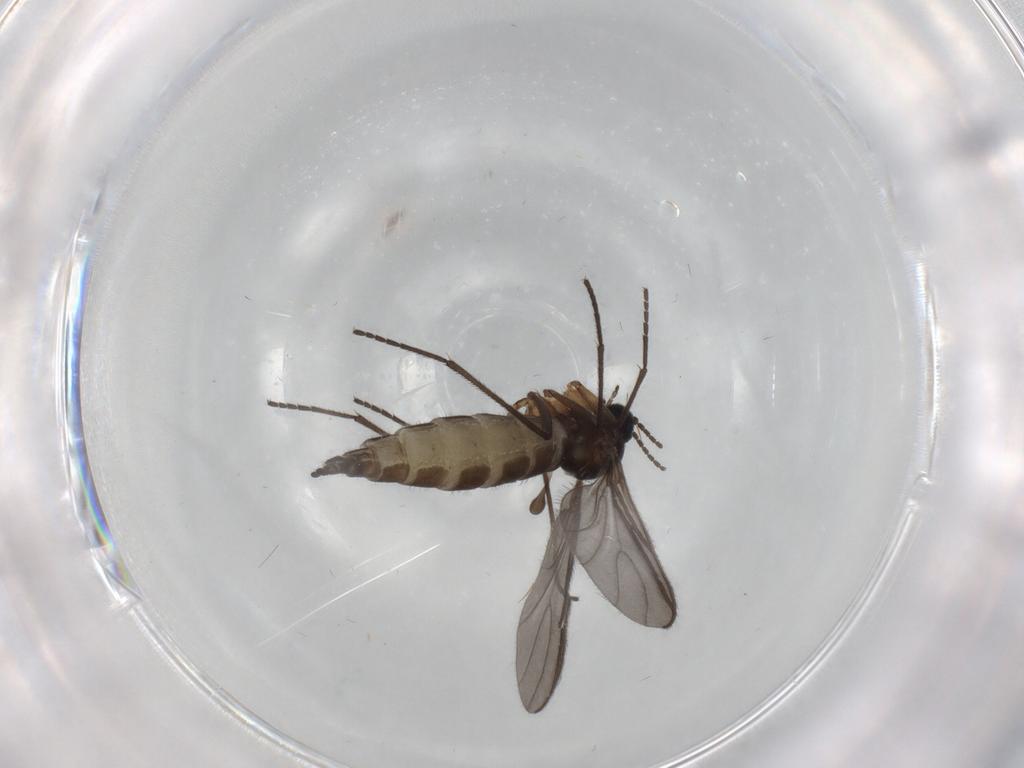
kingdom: Animalia
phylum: Arthropoda
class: Insecta
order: Diptera
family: Sciaridae
